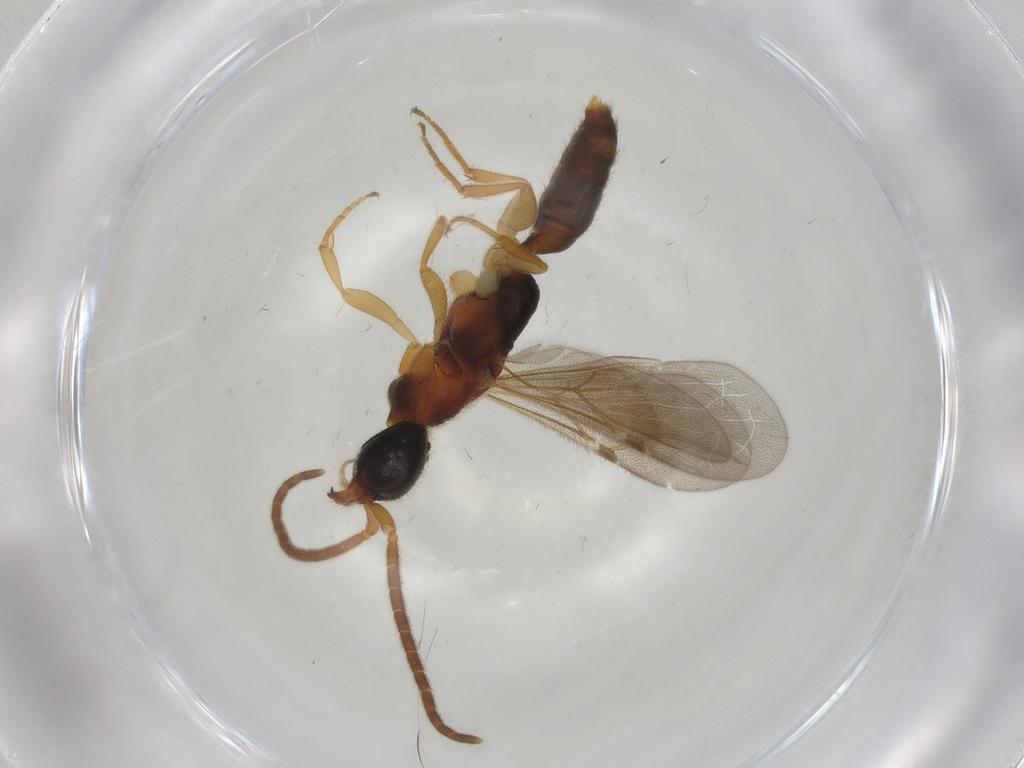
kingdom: Animalia
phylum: Arthropoda
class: Insecta
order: Hymenoptera
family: Bethylidae
